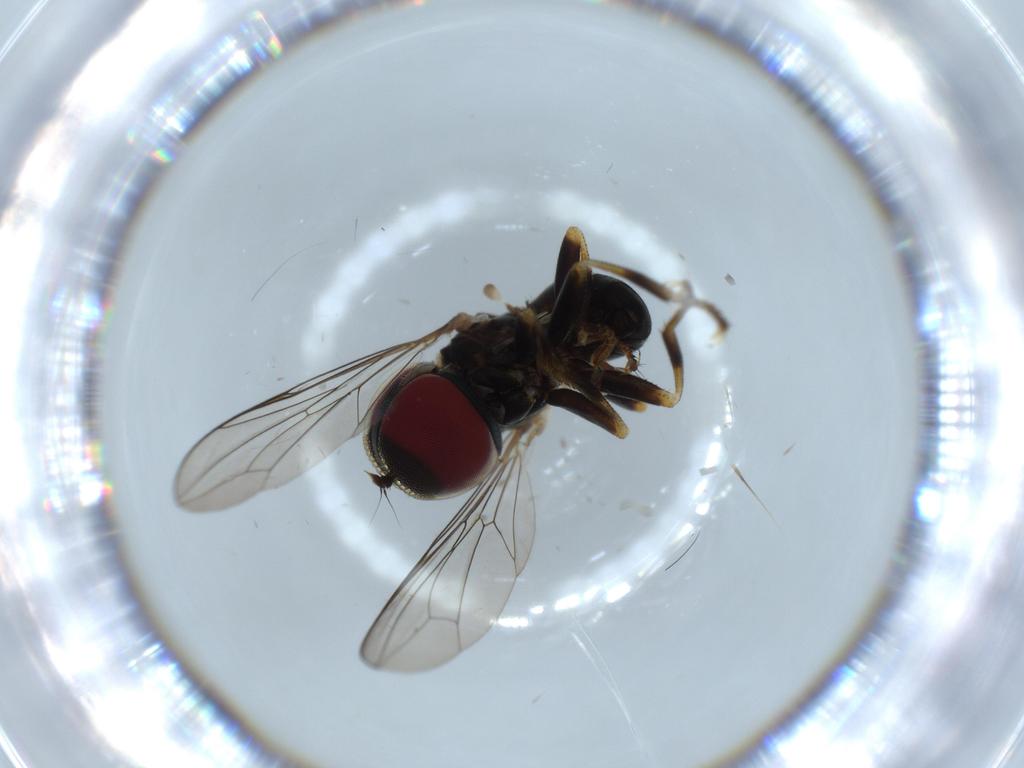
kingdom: Animalia
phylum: Arthropoda
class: Insecta
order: Diptera
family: Pipunculidae
